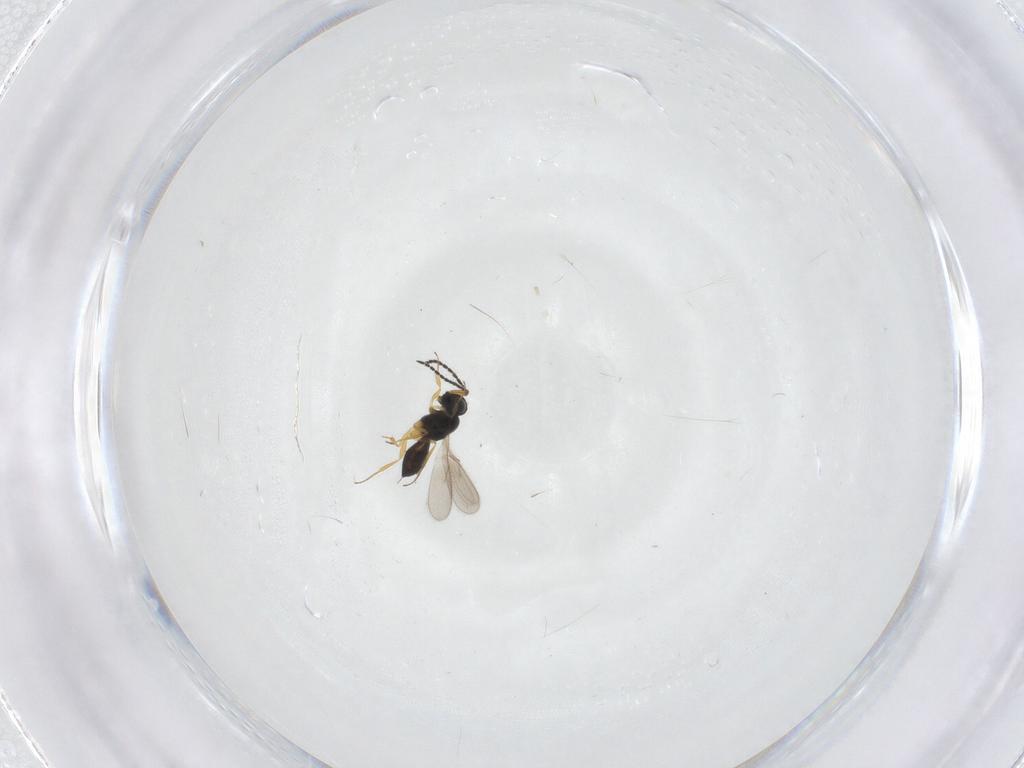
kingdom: Animalia
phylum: Arthropoda
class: Insecta
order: Hymenoptera
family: Scelionidae
